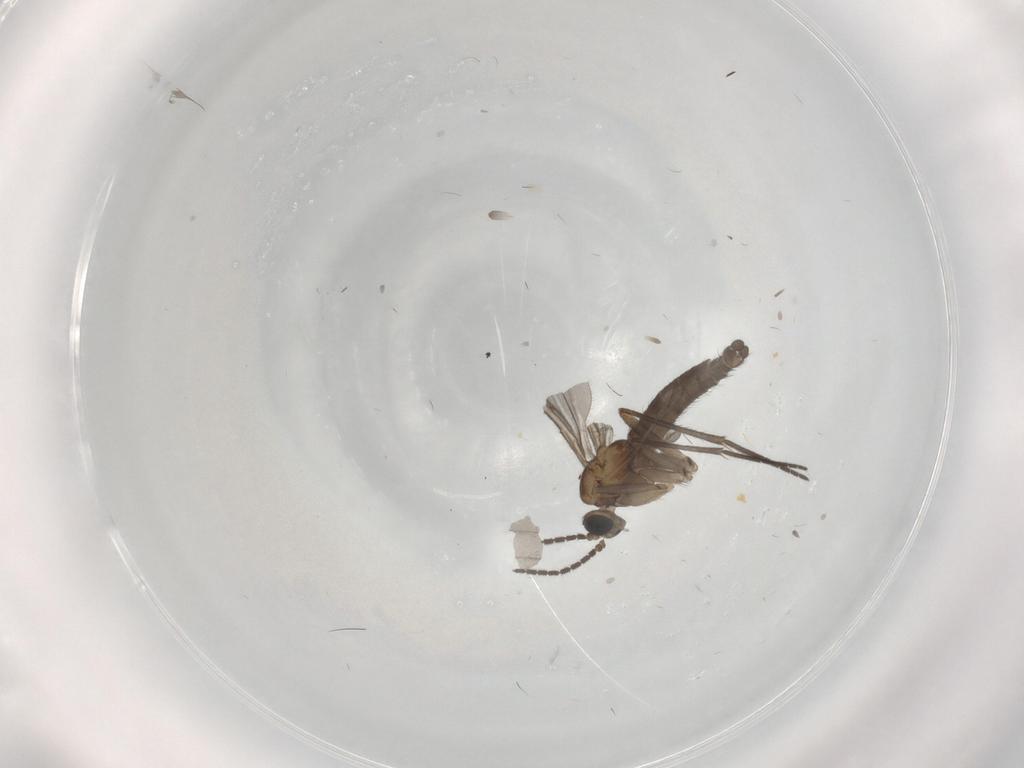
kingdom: Animalia
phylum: Arthropoda
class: Insecta
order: Diptera
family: Sciaridae
